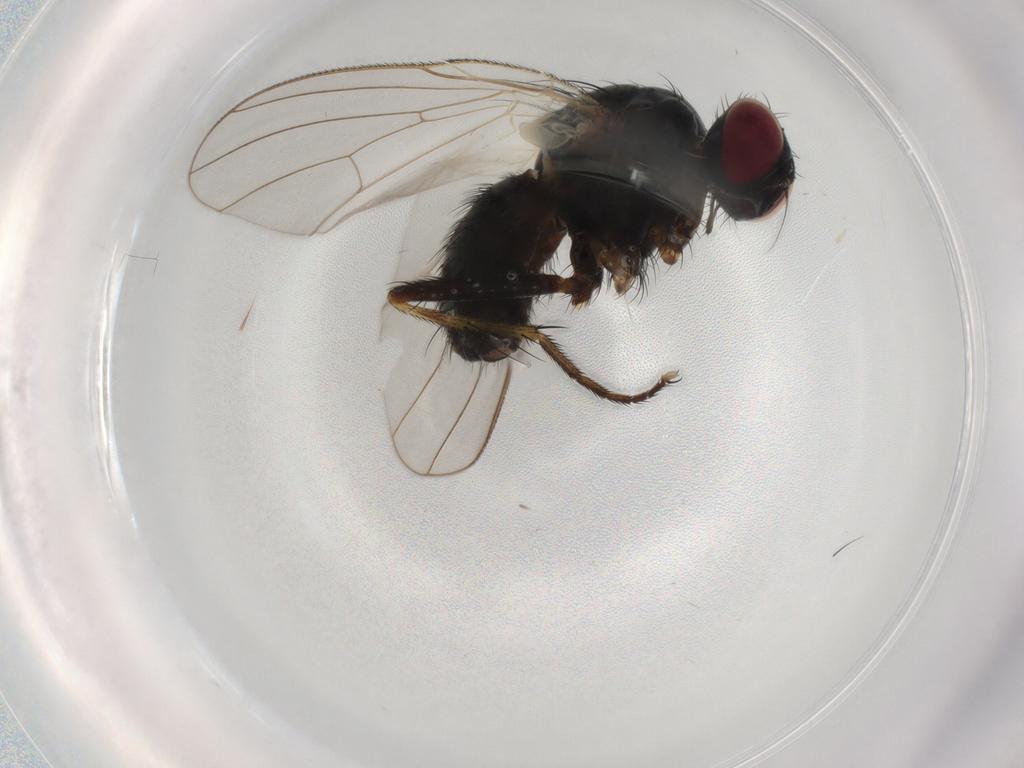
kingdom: Animalia
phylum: Arthropoda
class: Insecta
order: Diptera
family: Muscidae
